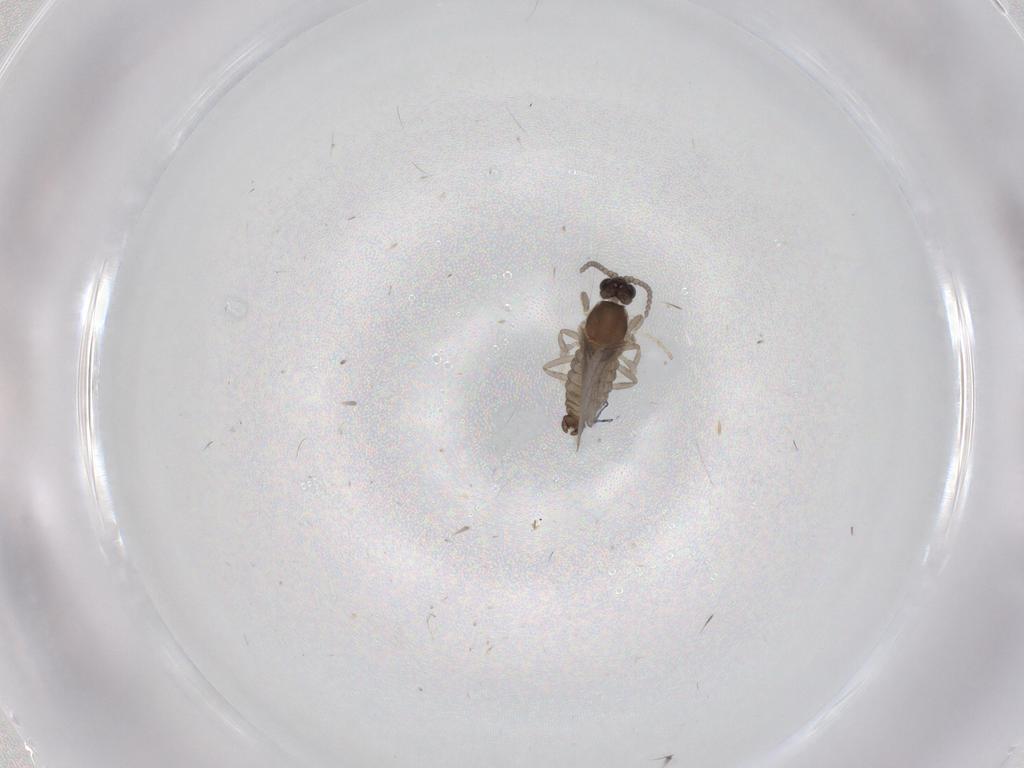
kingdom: Animalia
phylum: Arthropoda
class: Insecta
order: Diptera
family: Cecidomyiidae
